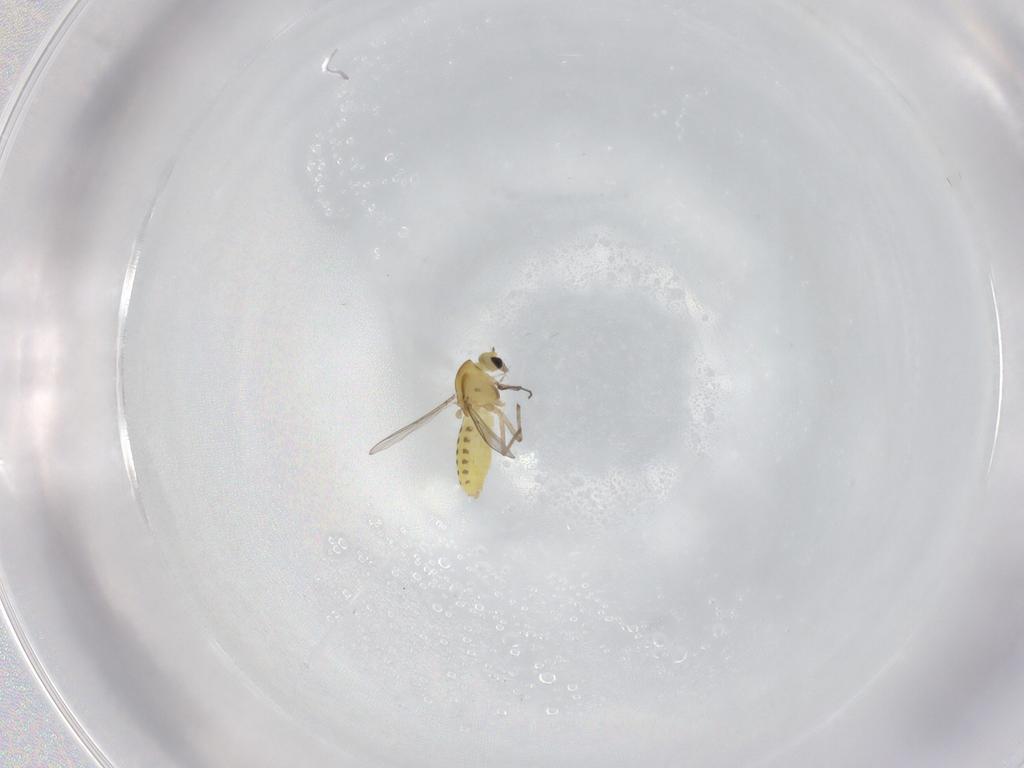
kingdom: Animalia
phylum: Arthropoda
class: Insecta
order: Diptera
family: Chironomidae
